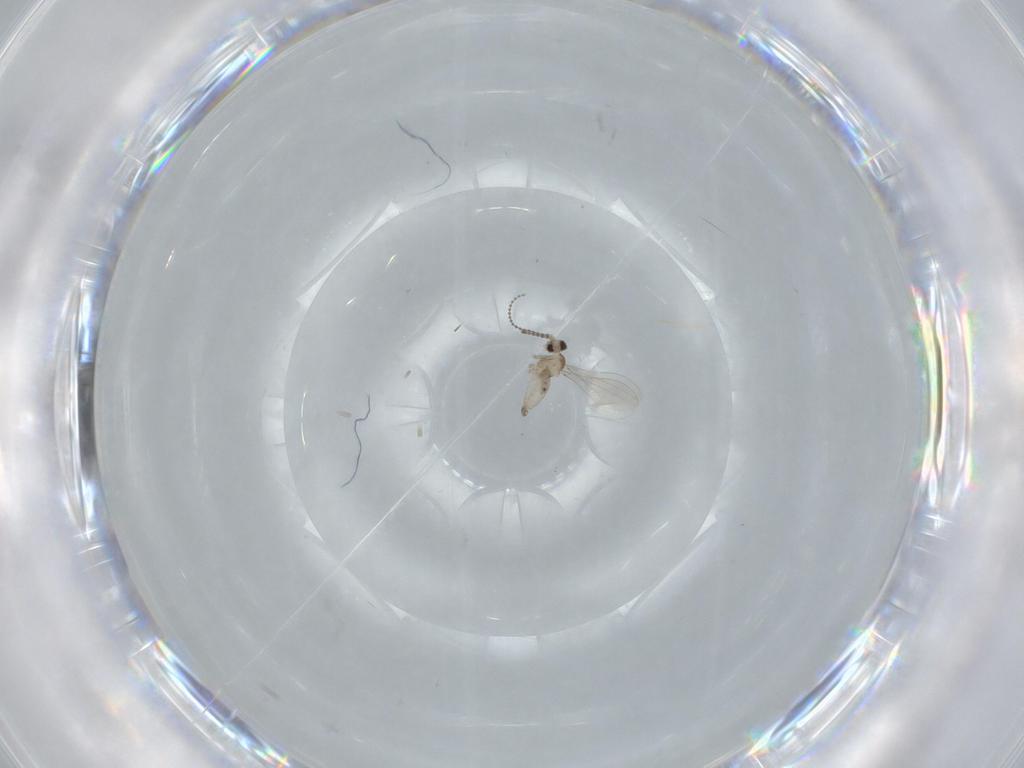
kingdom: Animalia
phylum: Arthropoda
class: Insecta
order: Diptera
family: Cecidomyiidae
